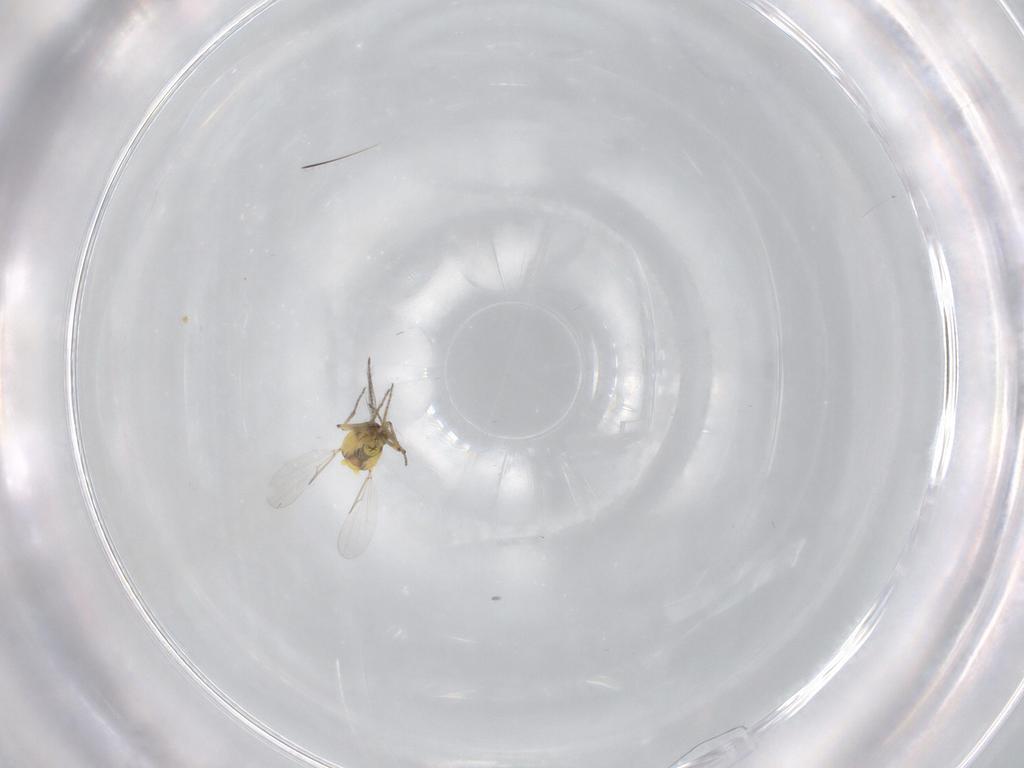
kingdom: Animalia
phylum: Arthropoda
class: Insecta
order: Diptera
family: Ceratopogonidae
